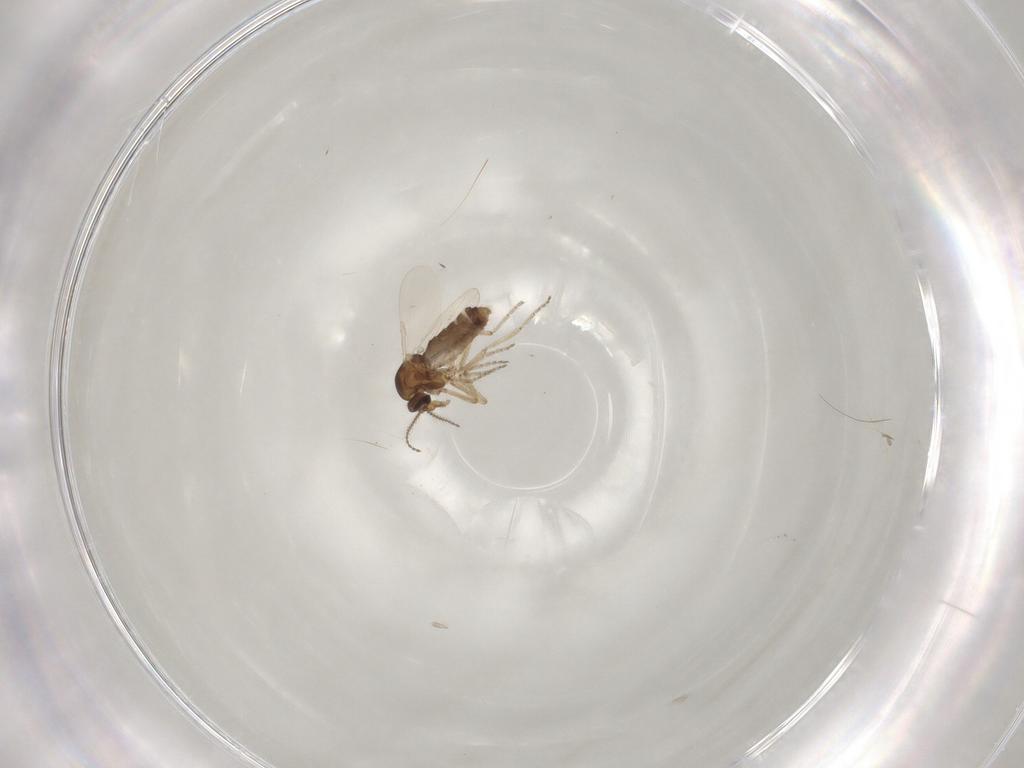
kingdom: Animalia
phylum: Arthropoda
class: Insecta
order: Diptera
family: Ceratopogonidae
